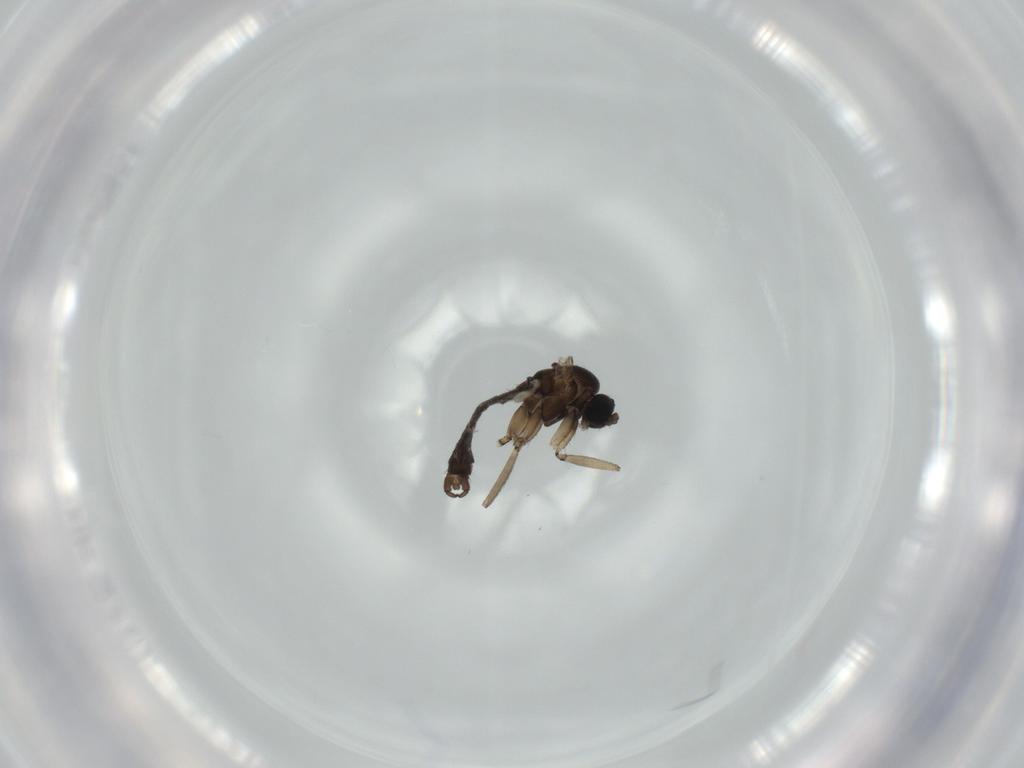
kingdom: Animalia
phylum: Arthropoda
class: Insecta
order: Diptera
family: Sciaridae
